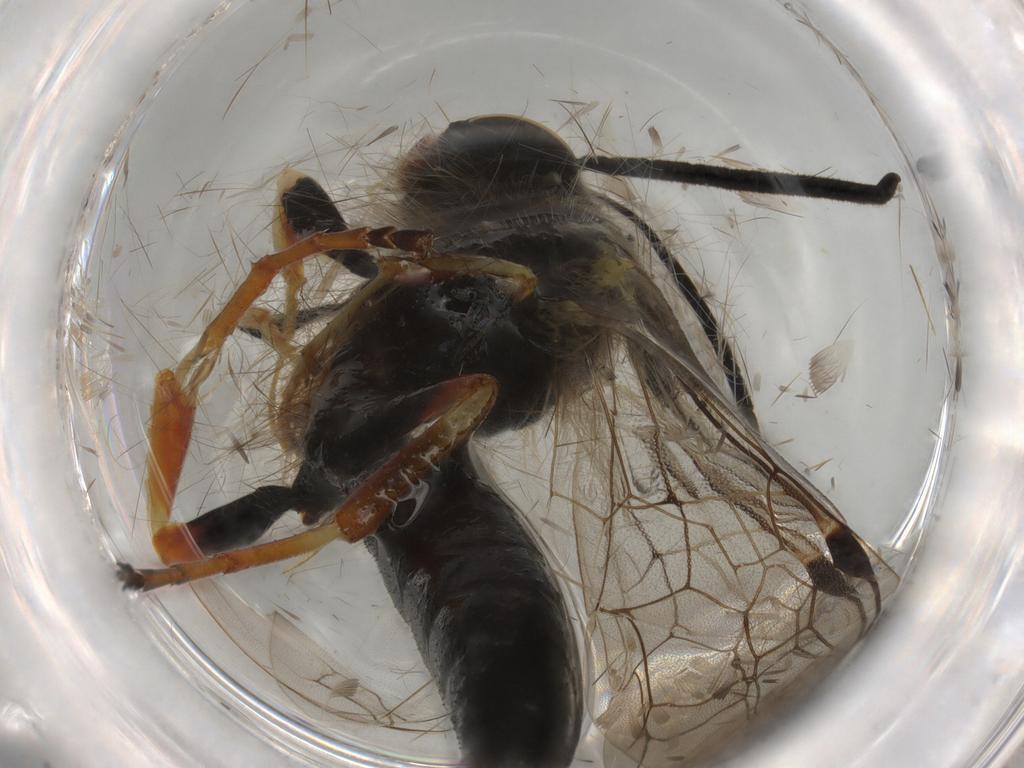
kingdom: Animalia
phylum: Arthropoda
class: Insecta
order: Hymenoptera
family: Thynnidae
